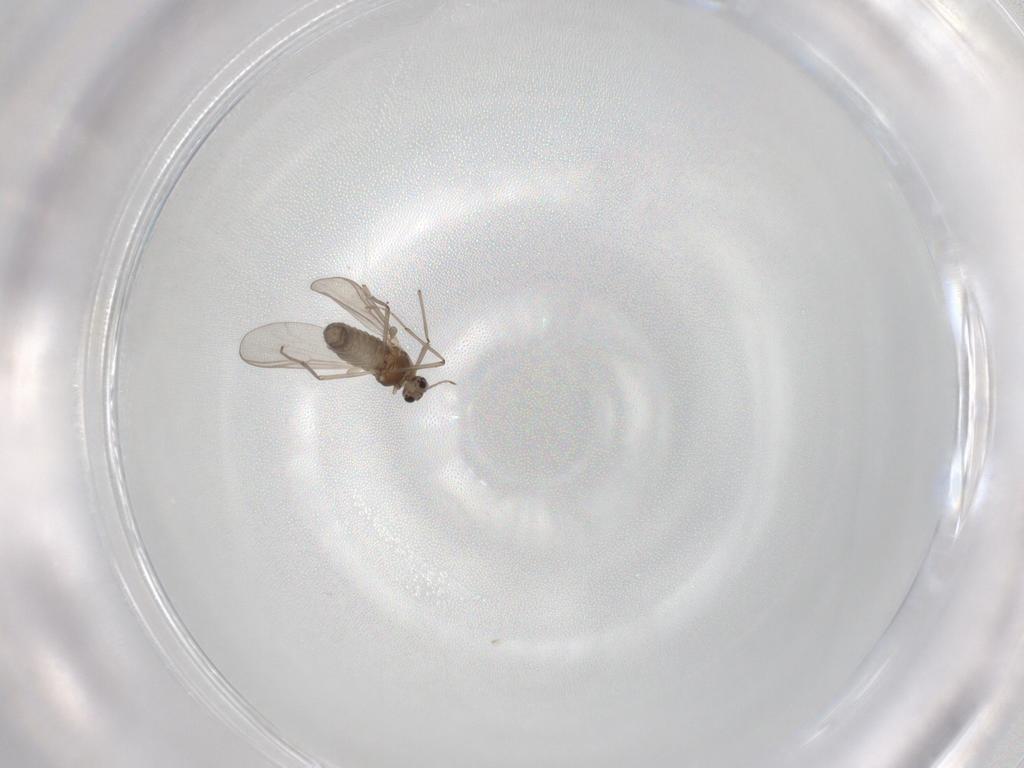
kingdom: Animalia
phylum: Arthropoda
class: Insecta
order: Diptera
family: Chironomidae
